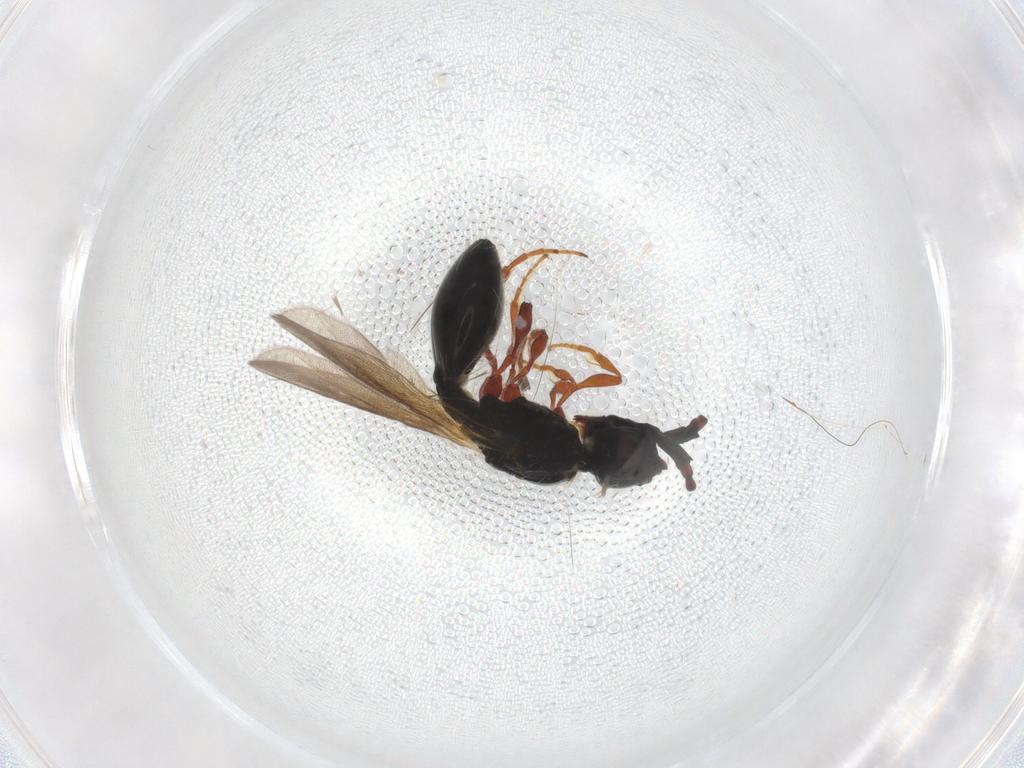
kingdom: Animalia
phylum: Arthropoda
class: Insecta
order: Hymenoptera
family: Diapriidae
